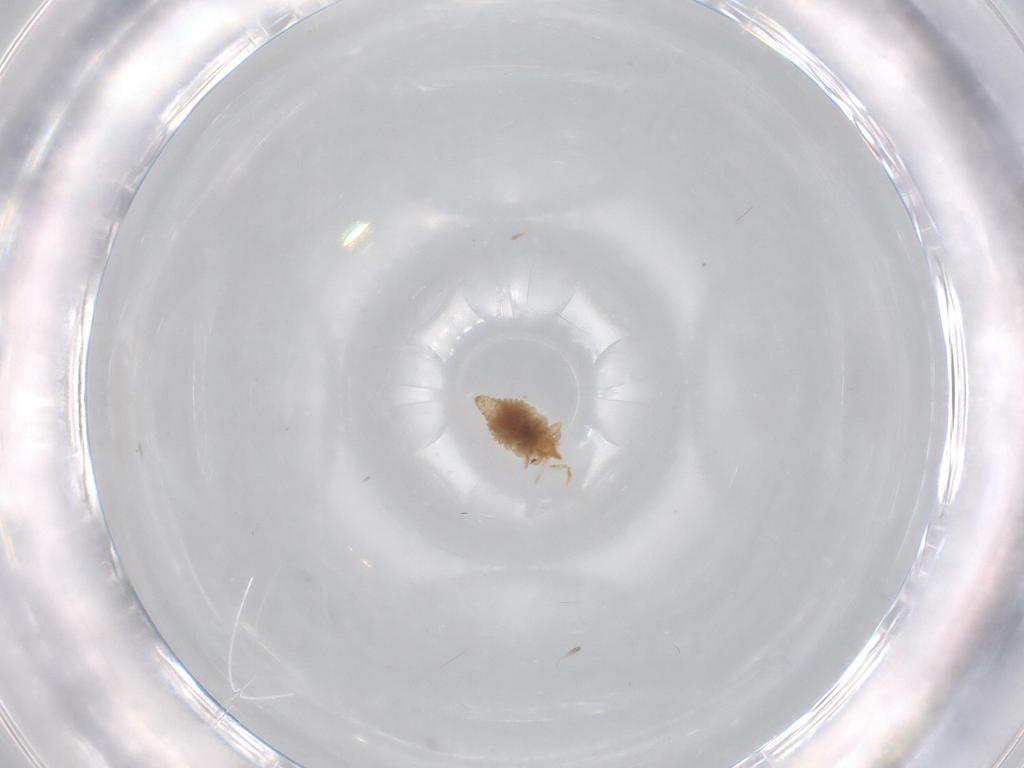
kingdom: Animalia
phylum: Arthropoda
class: Insecta
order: Neuroptera
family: Coniopterygidae
